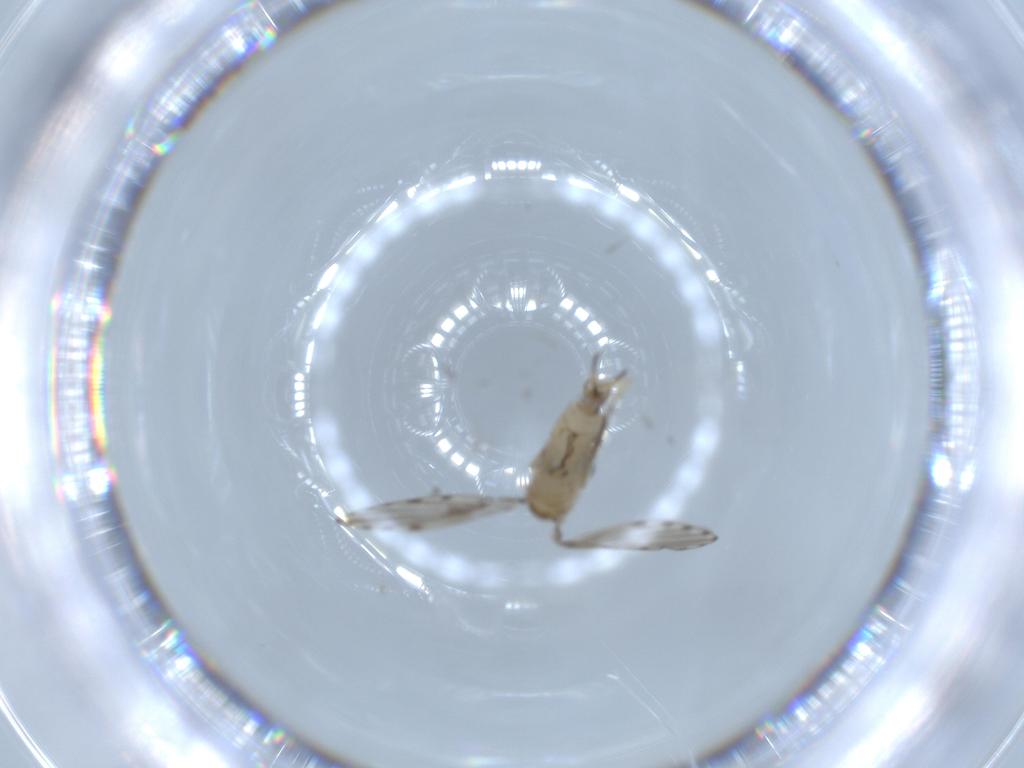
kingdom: Animalia
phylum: Arthropoda
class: Insecta
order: Diptera
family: Psychodidae
